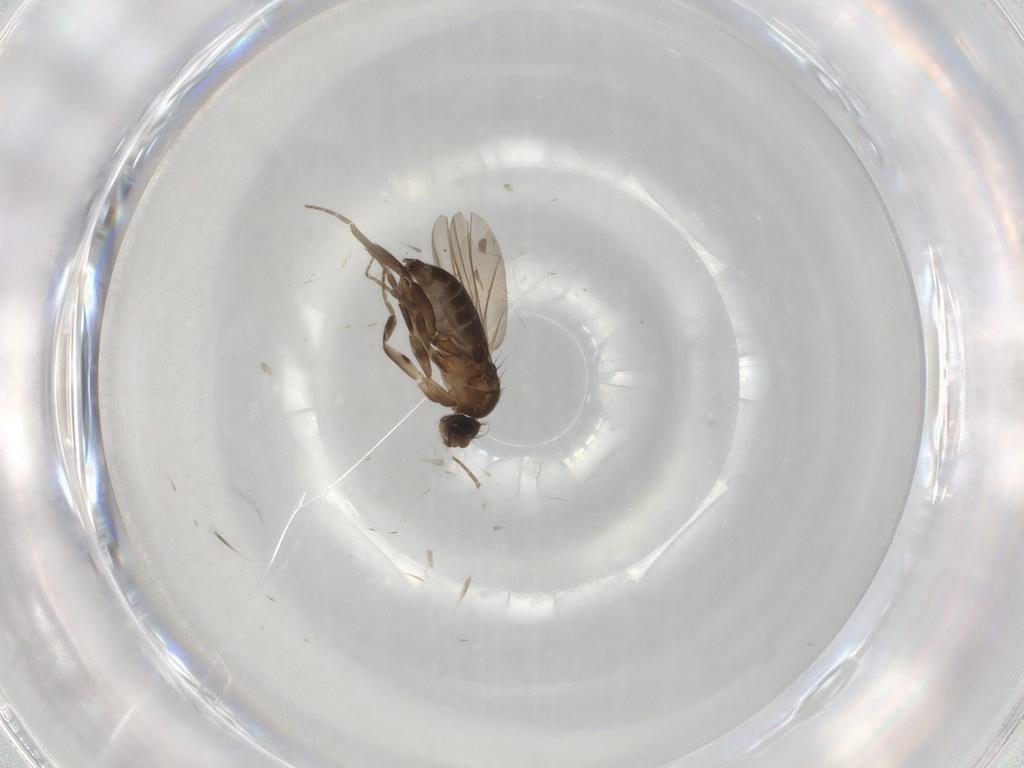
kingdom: Animalia
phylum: Arthropoda
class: Insecta
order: Diptera
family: Phoridae
